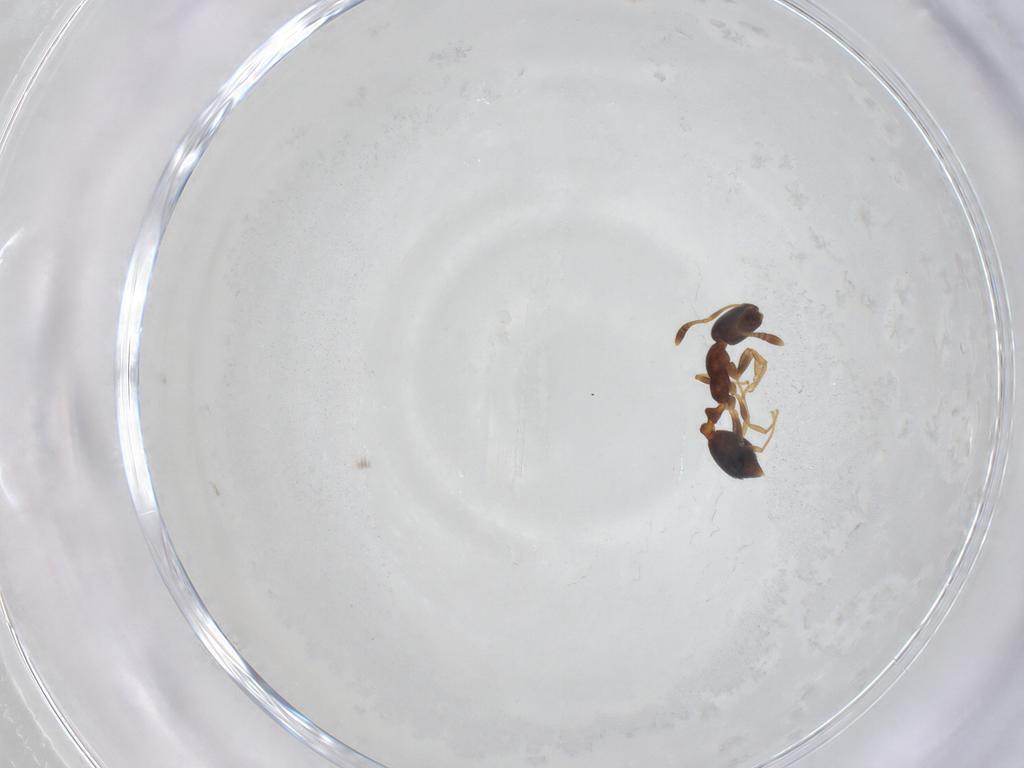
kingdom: Animalia
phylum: Arthropoda
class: Insecta
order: Hymenoptera
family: Formicidae
